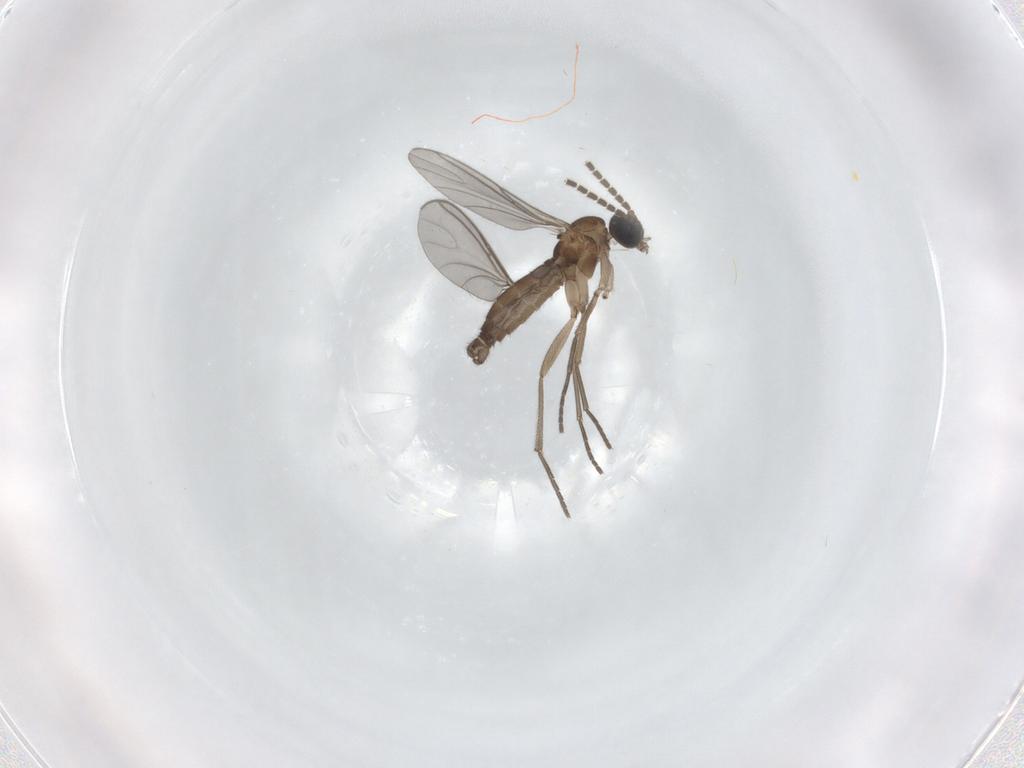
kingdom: Animalia
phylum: Arthropoda
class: Insecta
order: Diptera
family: Sciaridae
